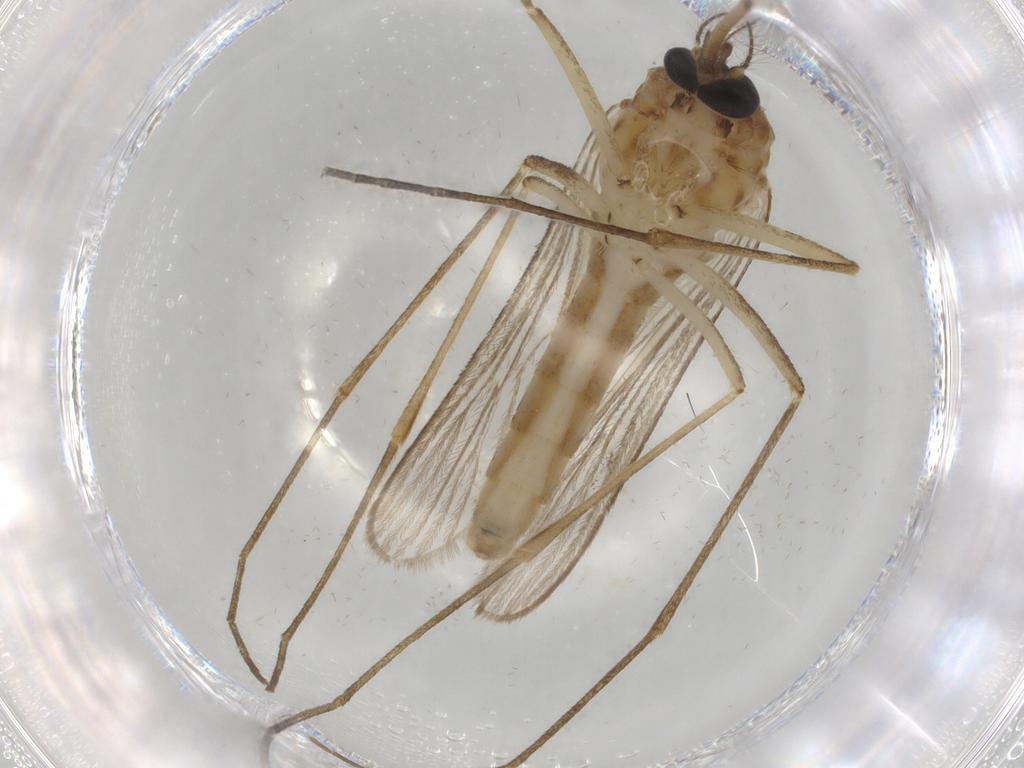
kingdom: Animalia
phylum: Arthropoda
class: Insecta
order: Diptera
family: Culicidae
